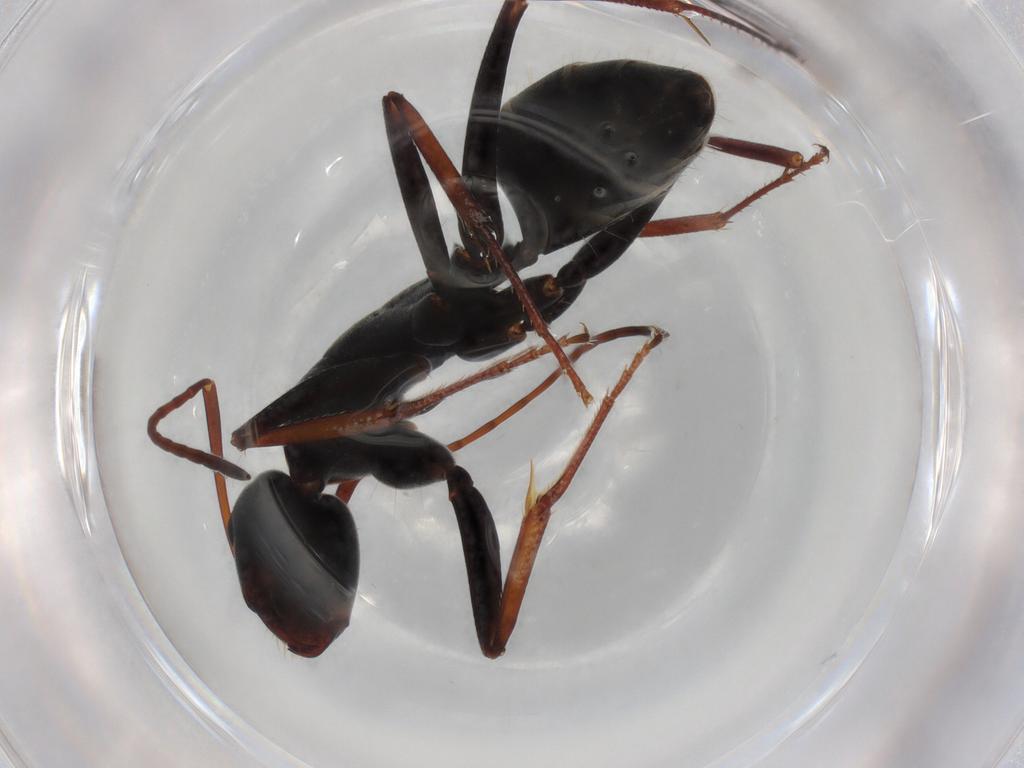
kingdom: Animalia
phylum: Arthropoda
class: Insecta
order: Hymenoptera
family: Formicidae
